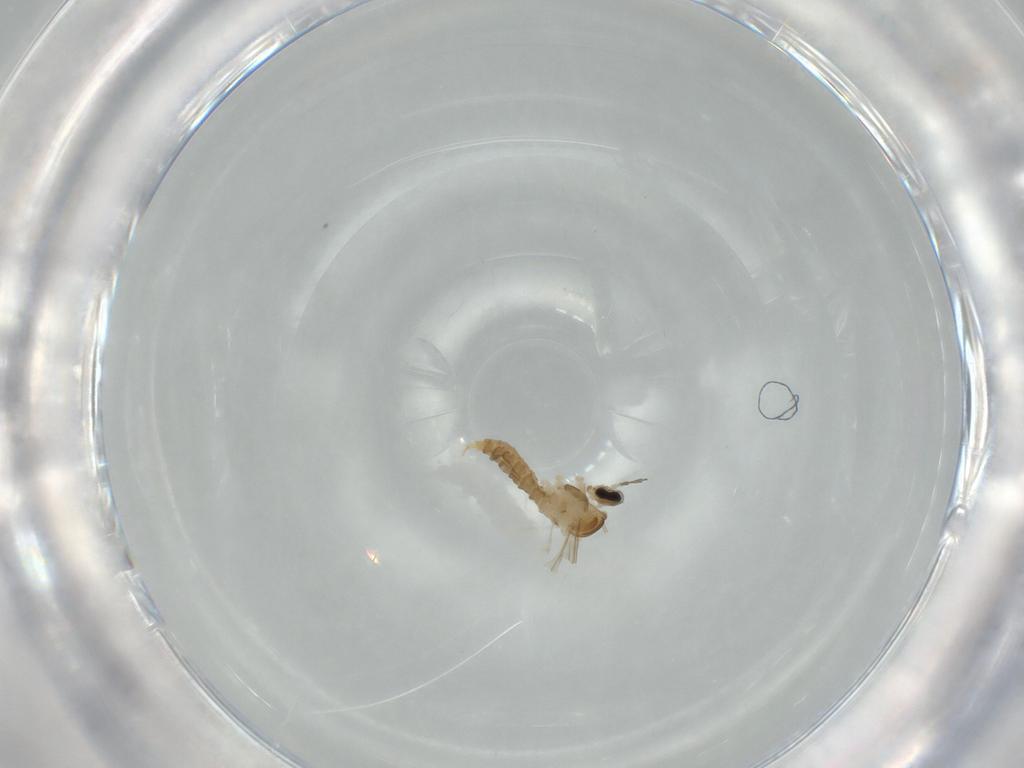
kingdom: Animalia
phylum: Arthropoda
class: Insecta
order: Diptera
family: Cecidomyiidae
